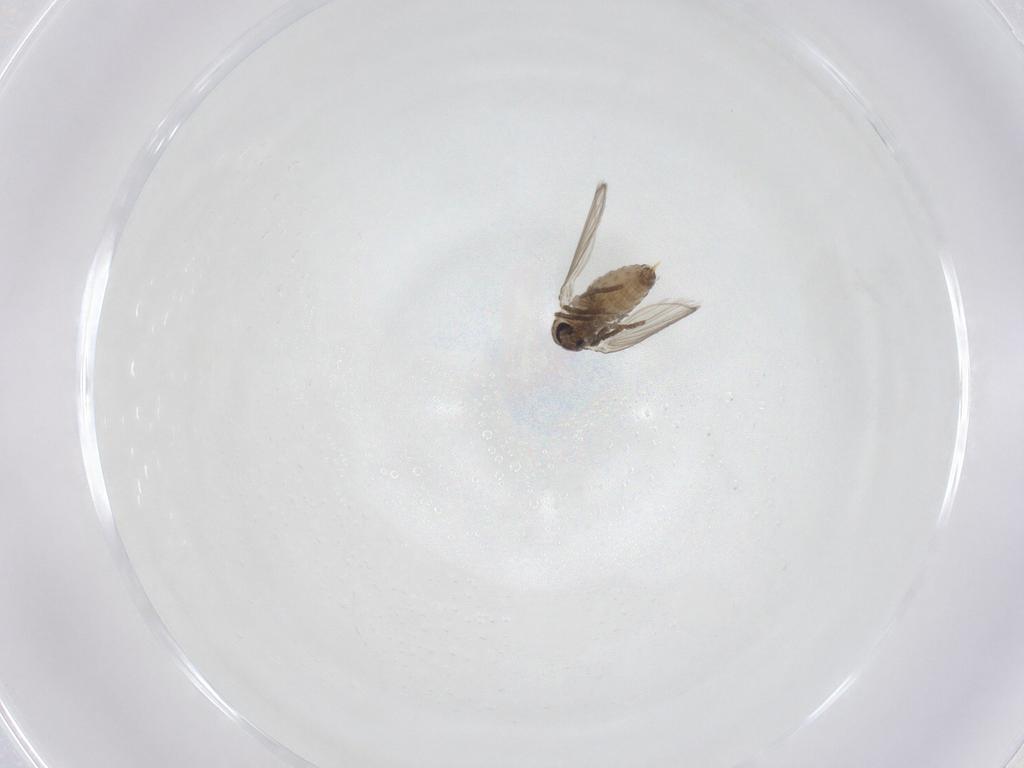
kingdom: Animalia
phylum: Arthropoda
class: Insecta
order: Diptera
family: Psychodidae
